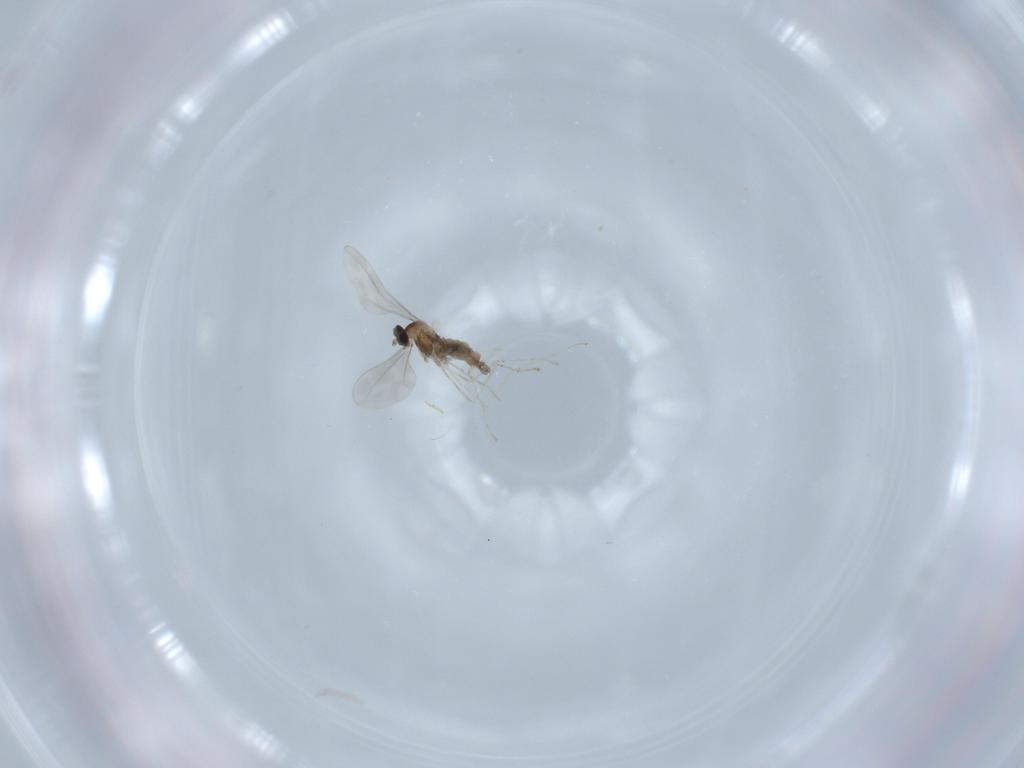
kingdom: Animalia
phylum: Arthropoda
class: Insecta
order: Diptera
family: Cecidomyiidae
